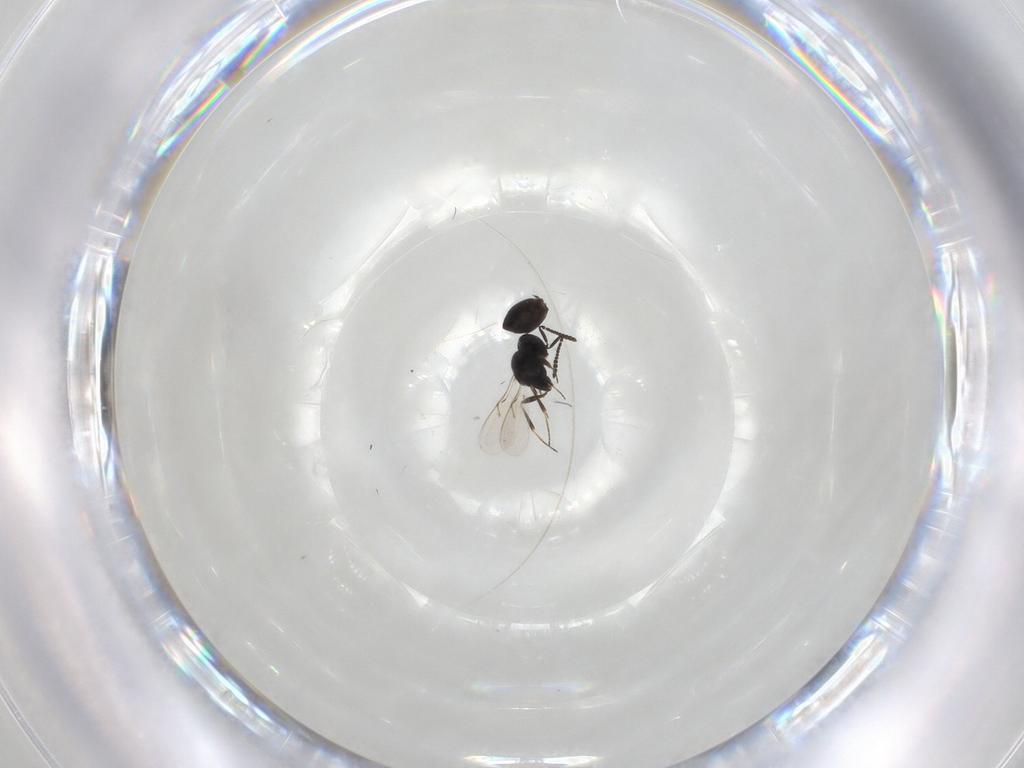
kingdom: Animalia
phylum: Arthropoda
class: Insecta
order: Hymenoptera
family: Scelionidae
